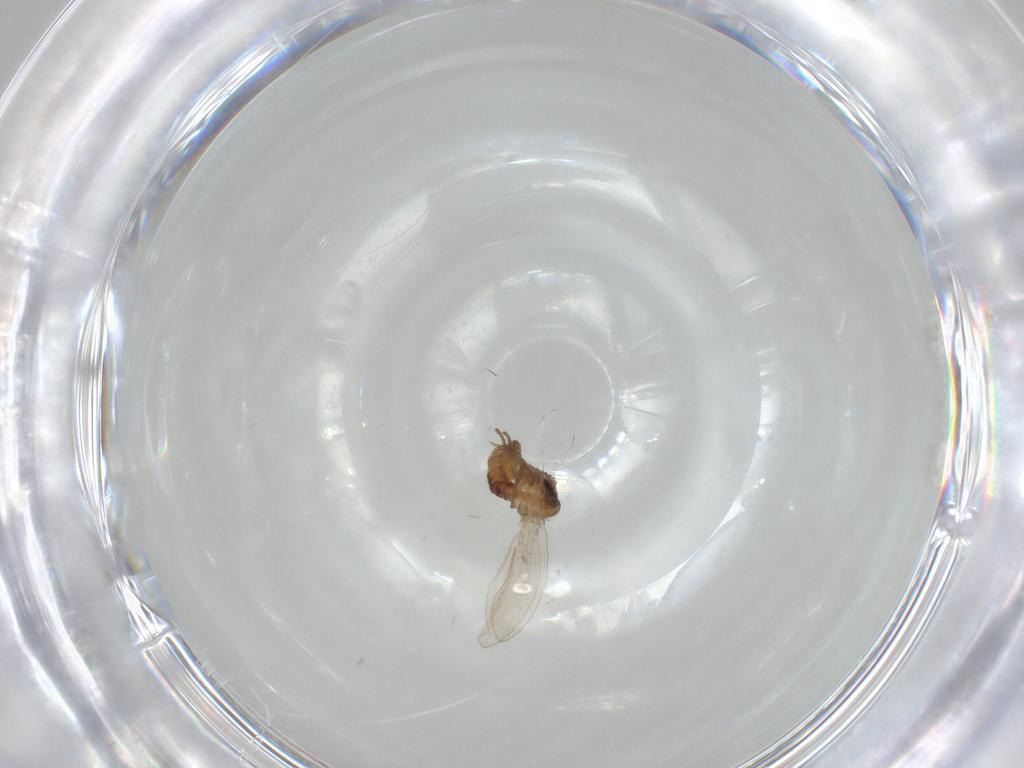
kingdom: Animalia
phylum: Arthropoda
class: Insecta
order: Diptera
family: Psychodidae
